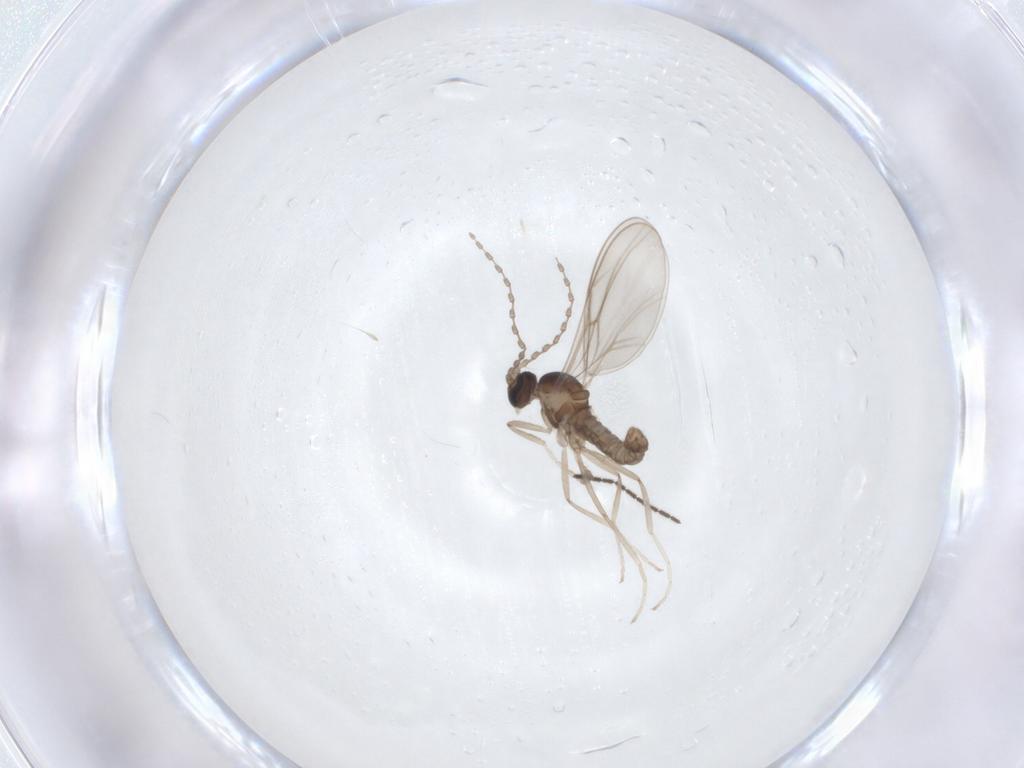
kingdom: Animalia
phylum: Arthropoda
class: Insecta
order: Diptera
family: Cecidomyiidae
